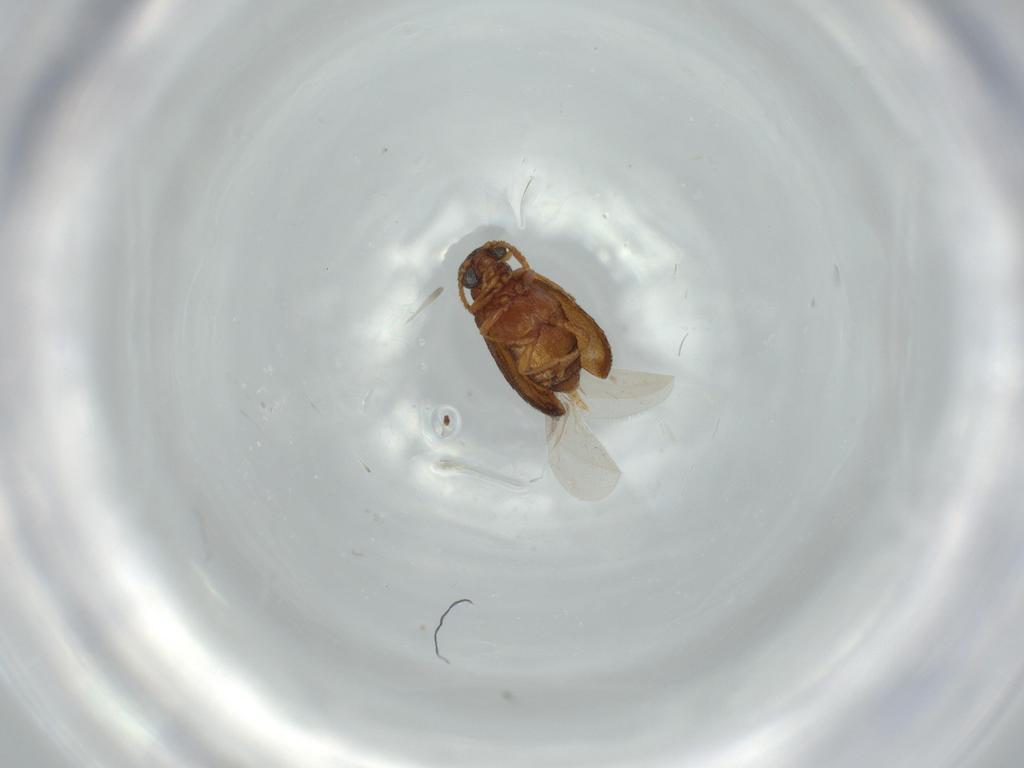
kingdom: Animalia
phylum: Arthropoda
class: Insecta
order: Coleoptera
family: Aderidae
